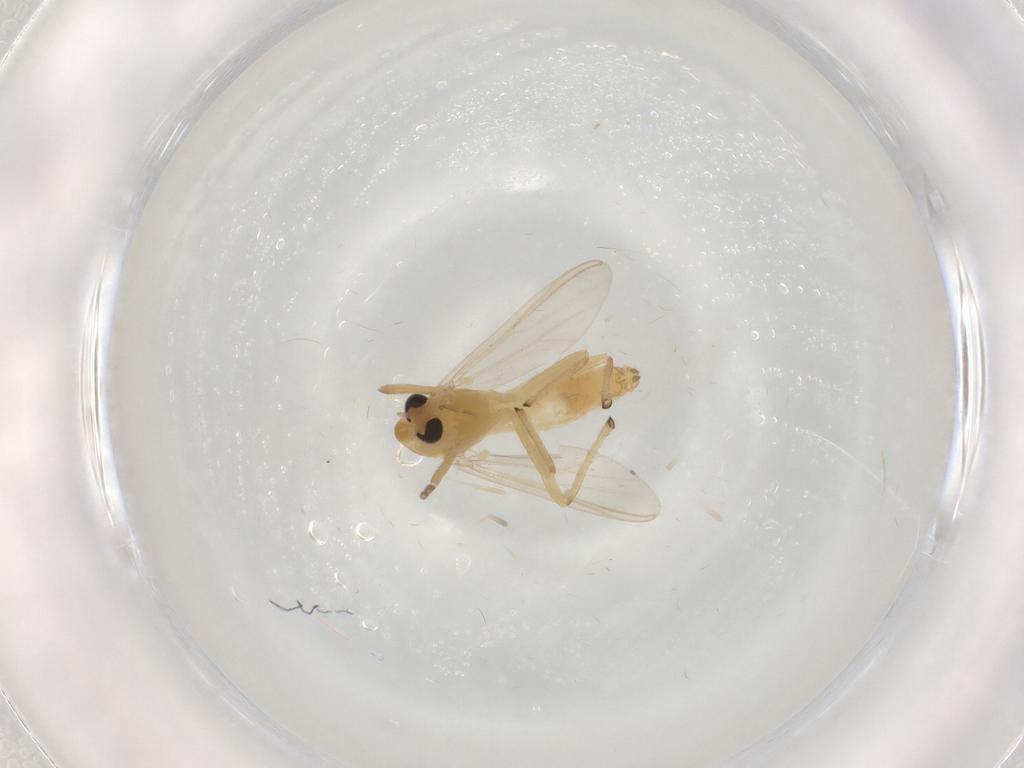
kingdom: Animalia
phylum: Arthropoda
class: Insecta
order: Diptera
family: Chironomidae
